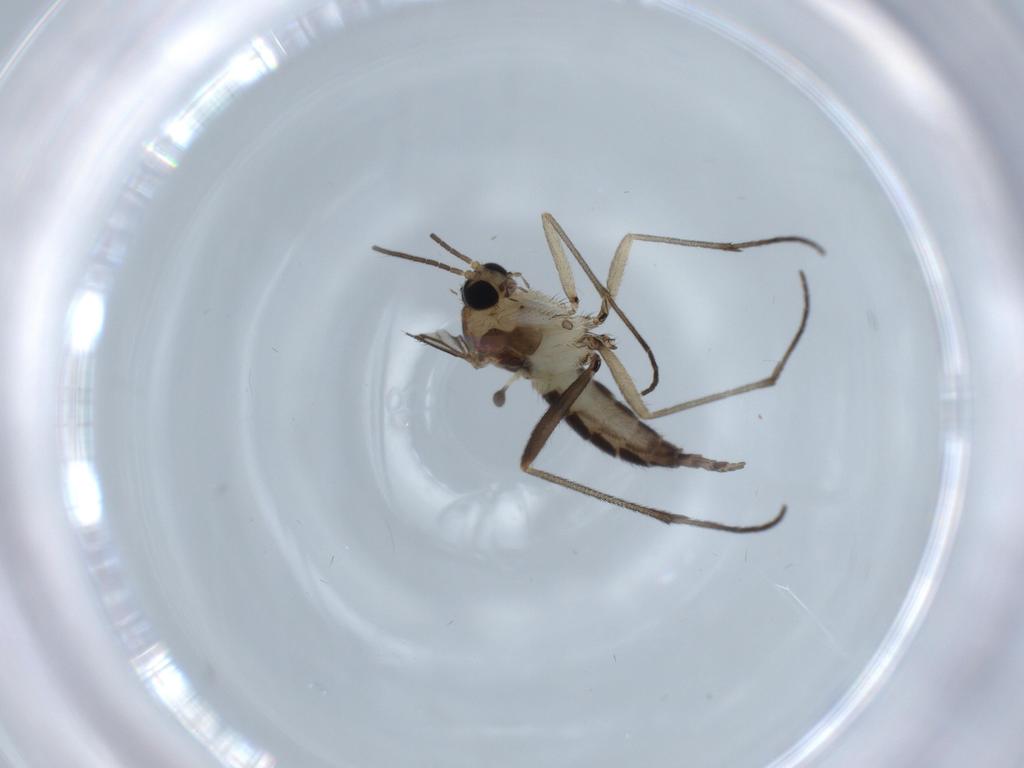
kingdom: Animalia
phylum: Arthropoda
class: Insecta
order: Diptera
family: Sciaridae
